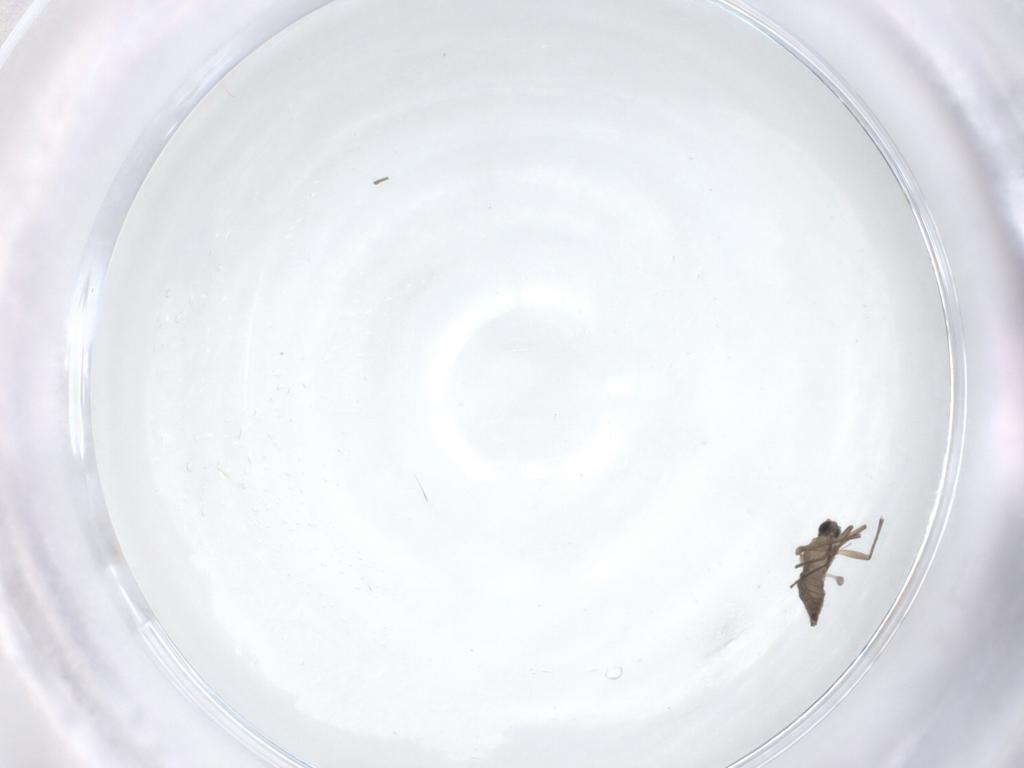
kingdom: Animalia
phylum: Arthropoda
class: Insecta
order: Diptera
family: Sciaridae
